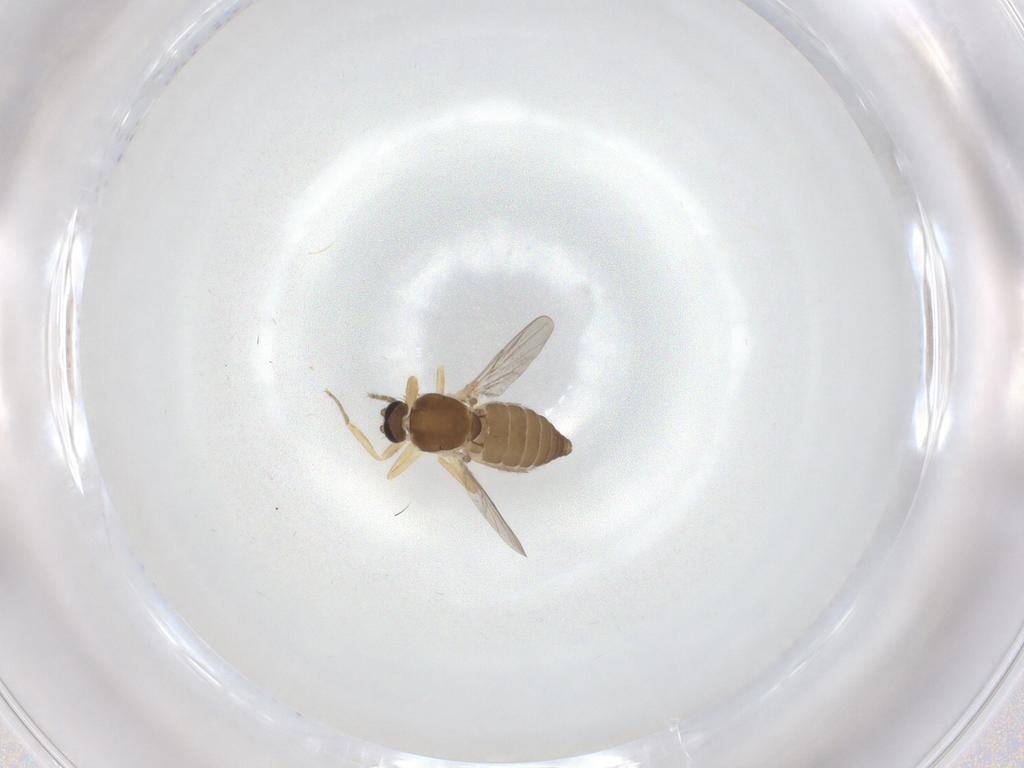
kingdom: Animalia
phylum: Arthropoda
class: Insecta
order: Diptera
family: Ceratopogonidae
